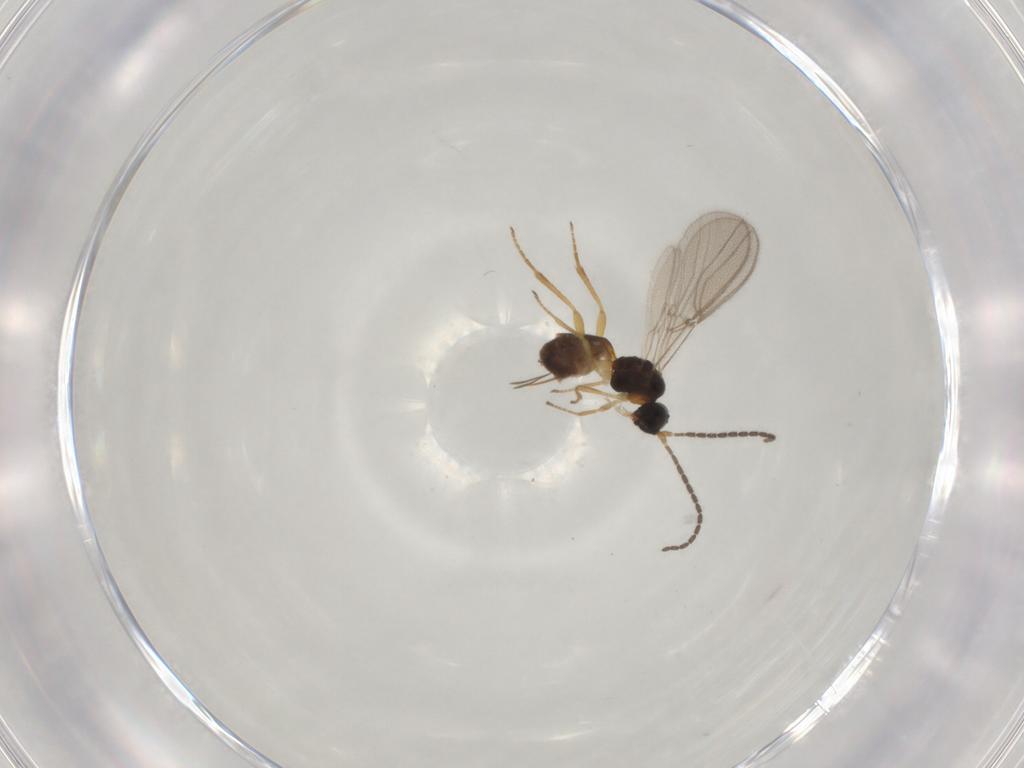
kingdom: Animalia
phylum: Arthropoda
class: Insecta
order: Hymenoptera
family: Braconidae
